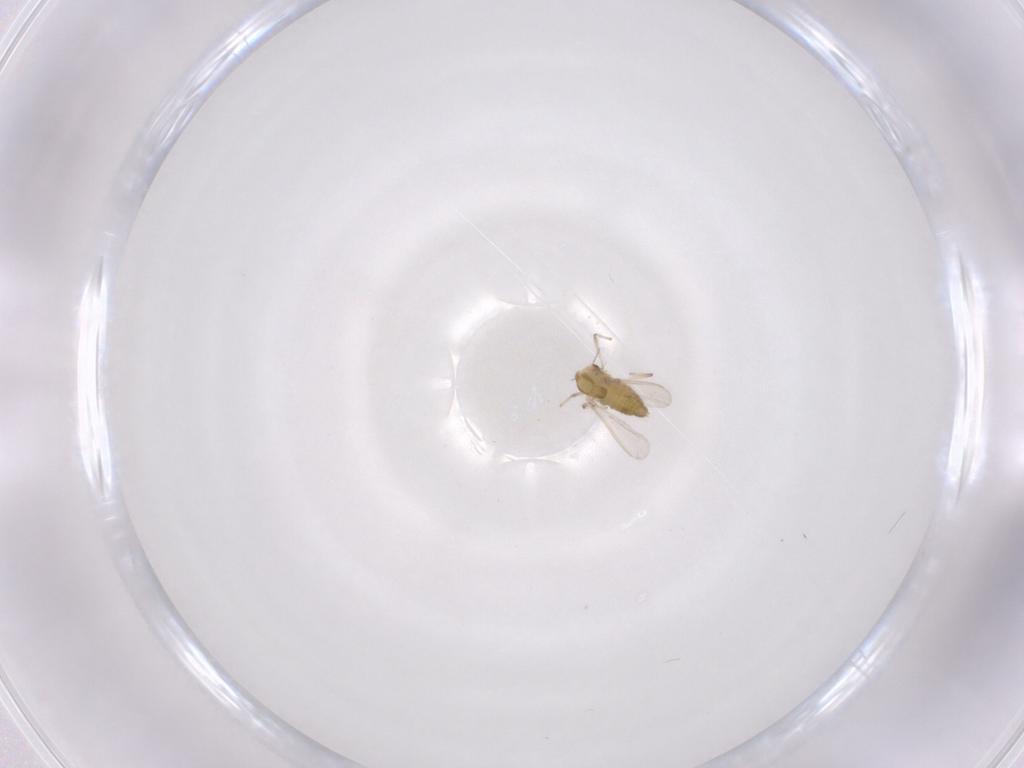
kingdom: Animalia
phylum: Arthropoda
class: Insecta
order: Diptera
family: Chironomidae
